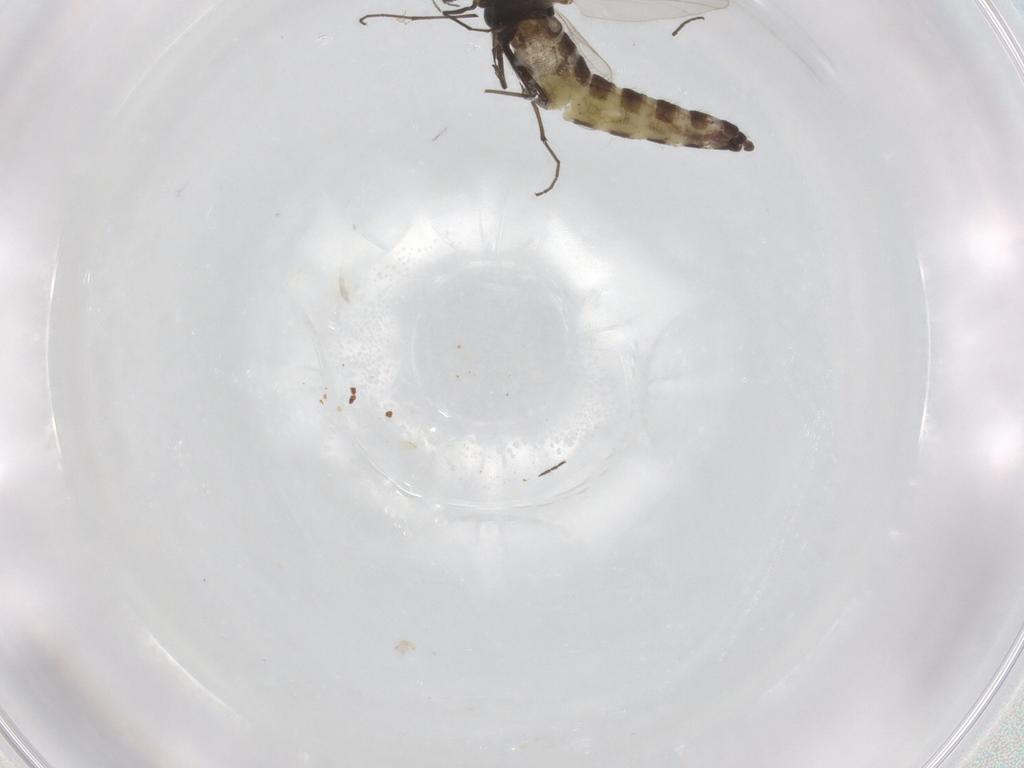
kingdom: Animalia
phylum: Arthropoda
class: Insecta
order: Diptera
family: Chironomidae
